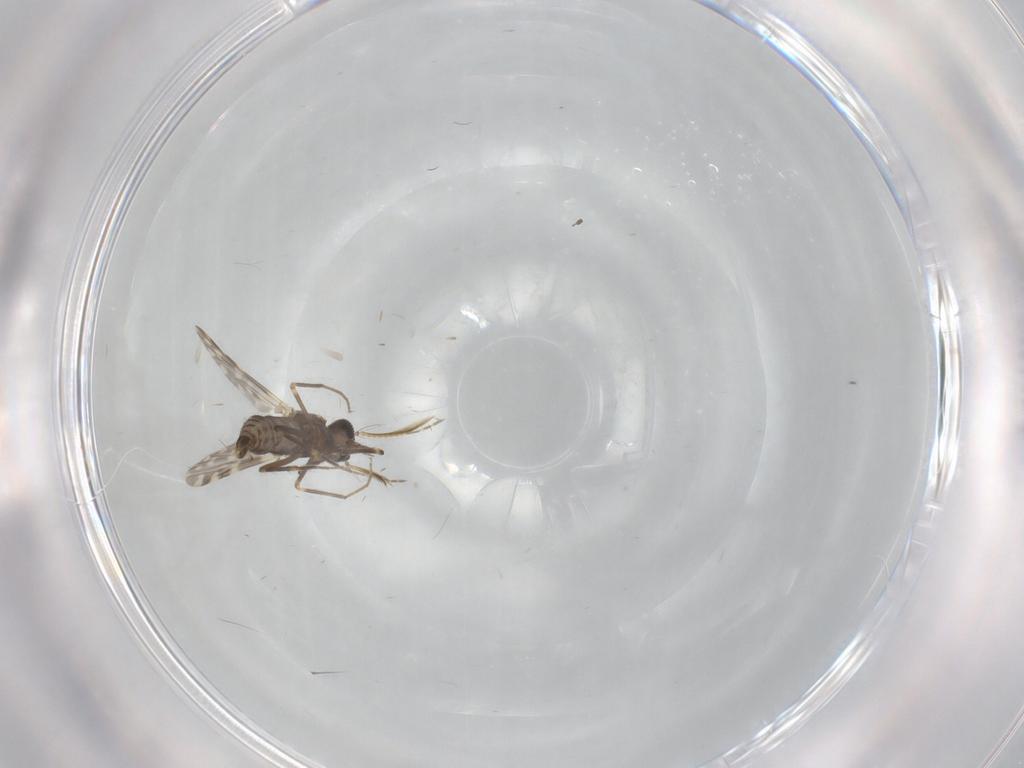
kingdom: Animalia
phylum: Arthropoda
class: Insecta
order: Diptera
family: Ceratopogonidae
